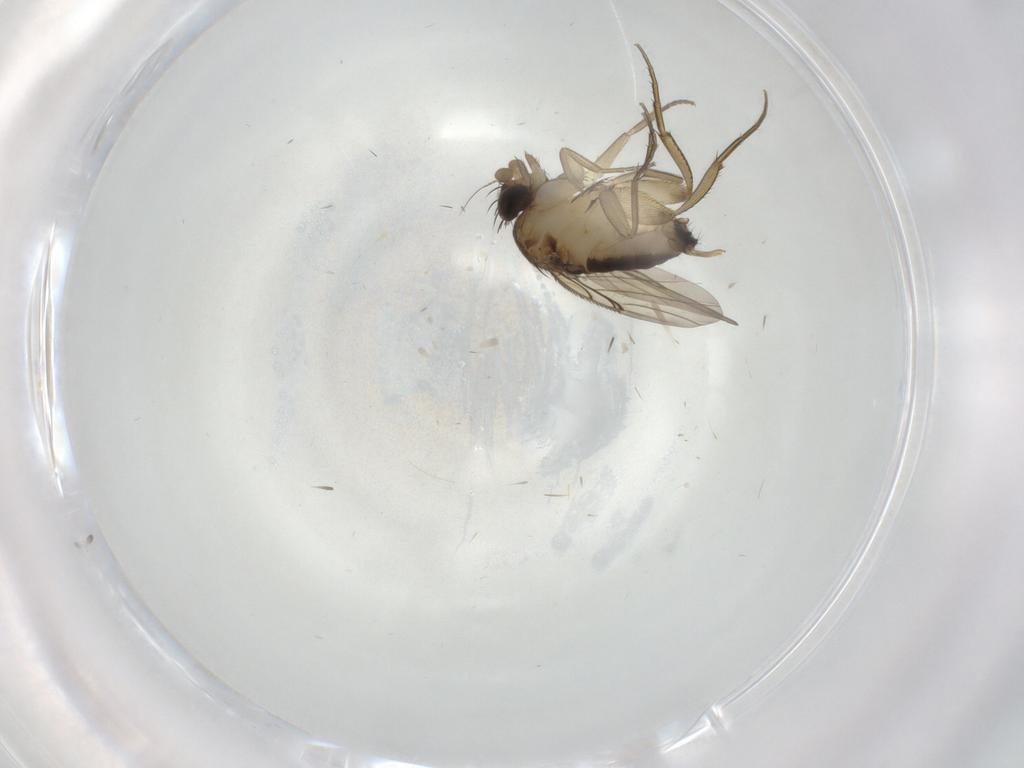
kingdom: Animalia
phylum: Arthropoda
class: Insecta
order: Diptera
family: Phoridae
